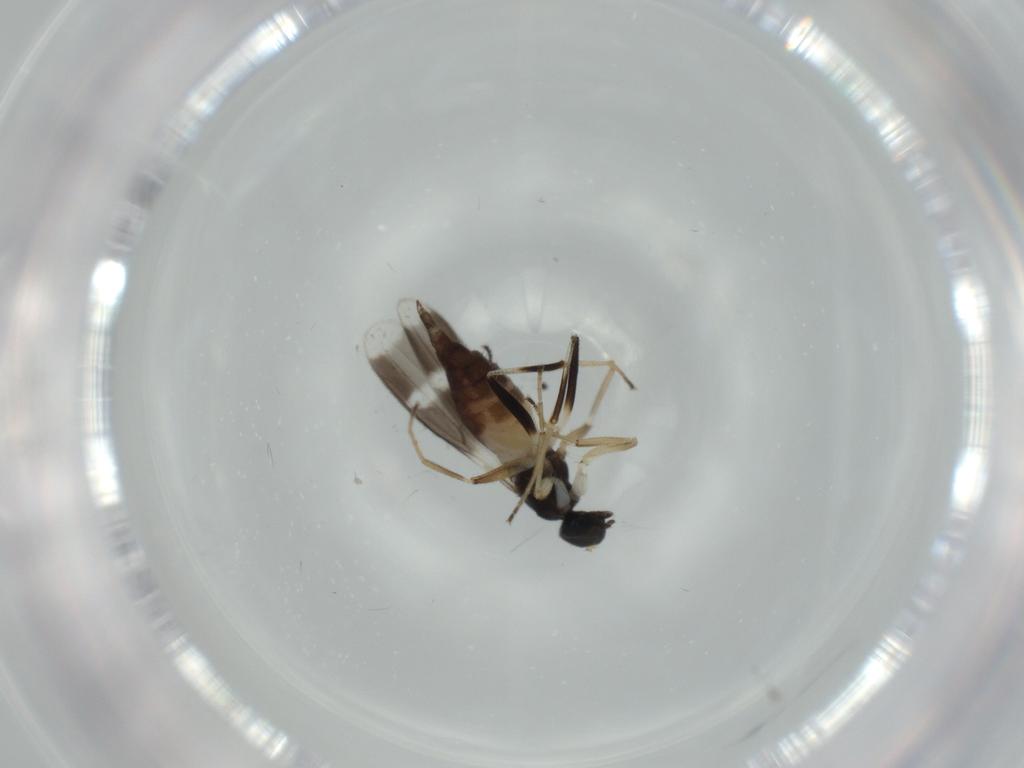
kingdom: Animalia
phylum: Arthropoda
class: Insecta
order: Diptera
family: Hybotidae
